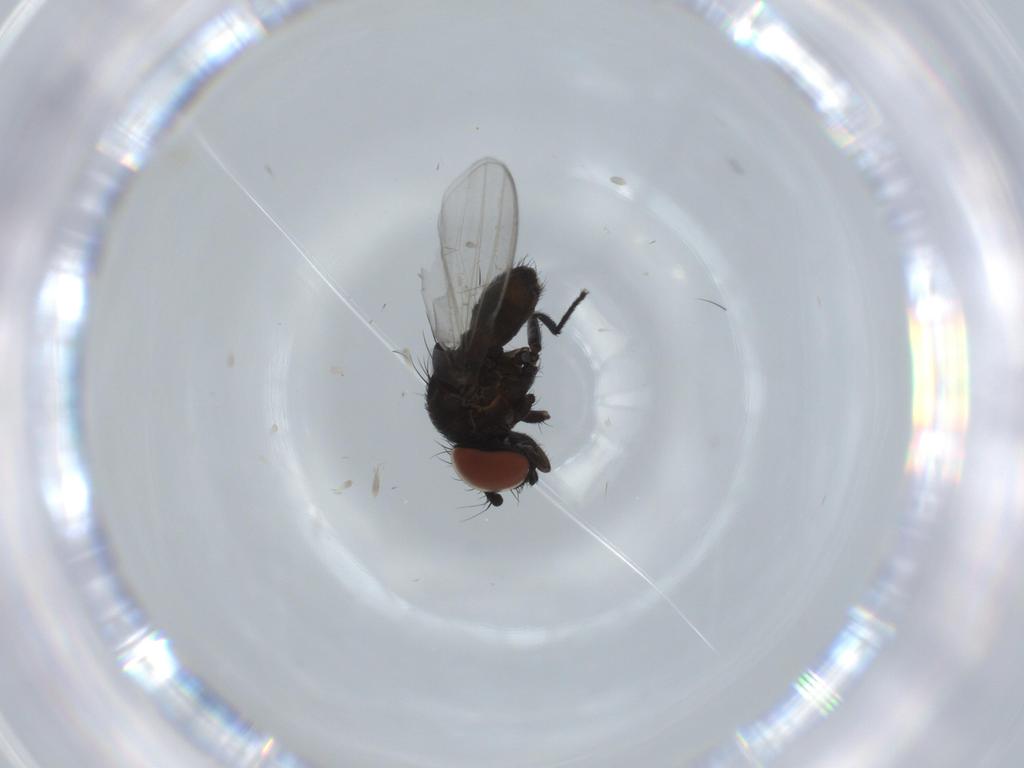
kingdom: Animalia
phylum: Arthropoda
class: Insecta
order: Diptera
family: Milichiidae
